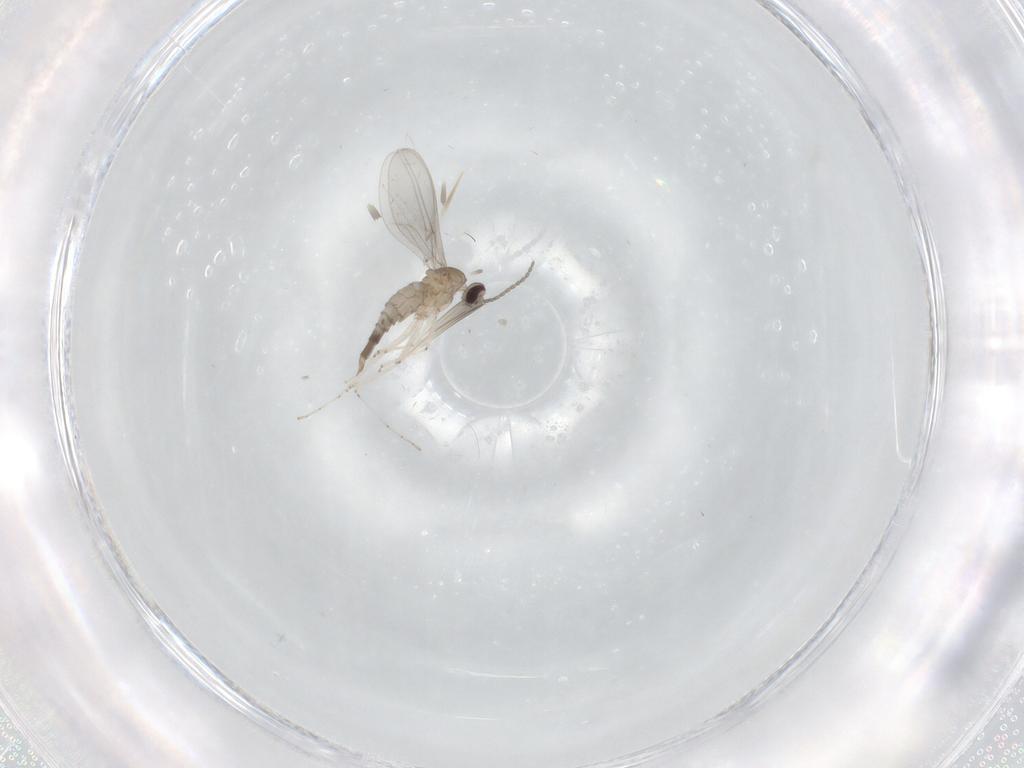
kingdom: Animalia
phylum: Arthropoda
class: Insecta
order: Diptera
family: Cecidomyiidae
